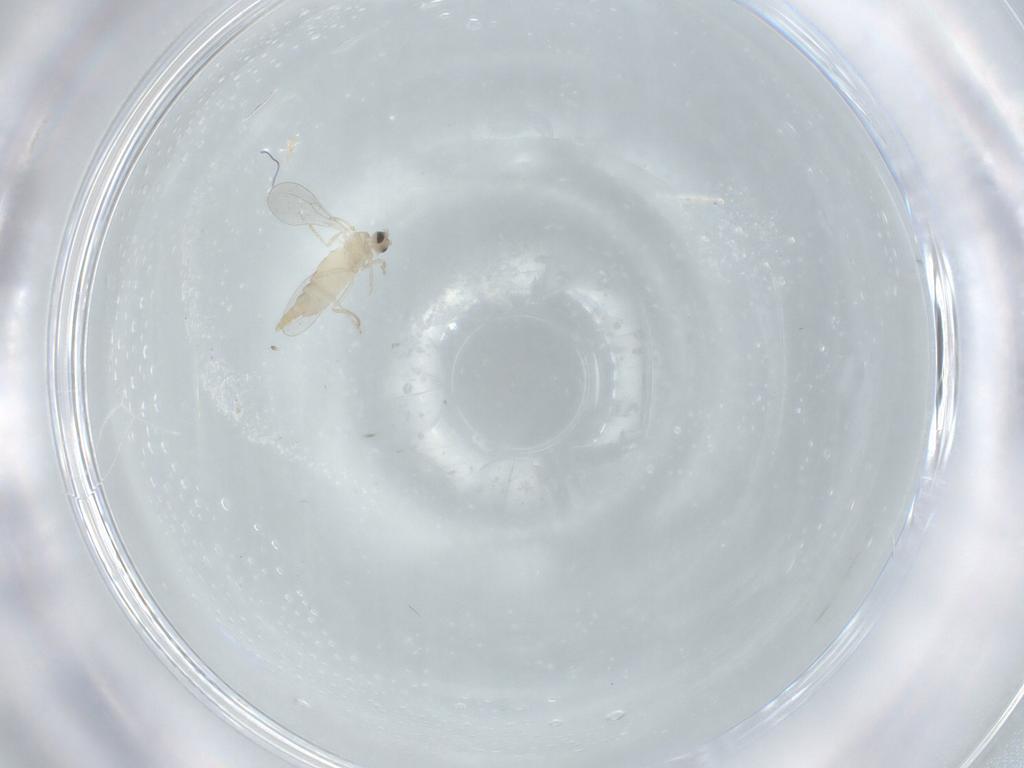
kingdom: Animalia
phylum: Arthropoda
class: Insecta
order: Diptera
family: Cecidomyiidae
